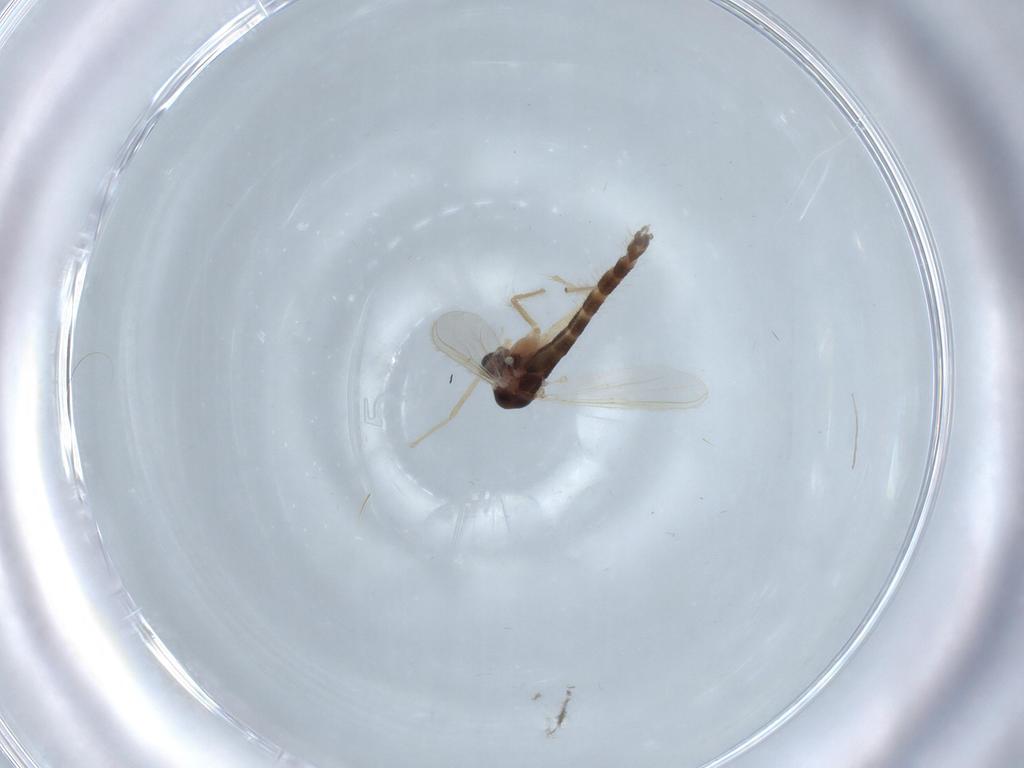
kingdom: Animalia
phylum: Arthropoda
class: Insecta
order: Diptera
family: Chironomidae
